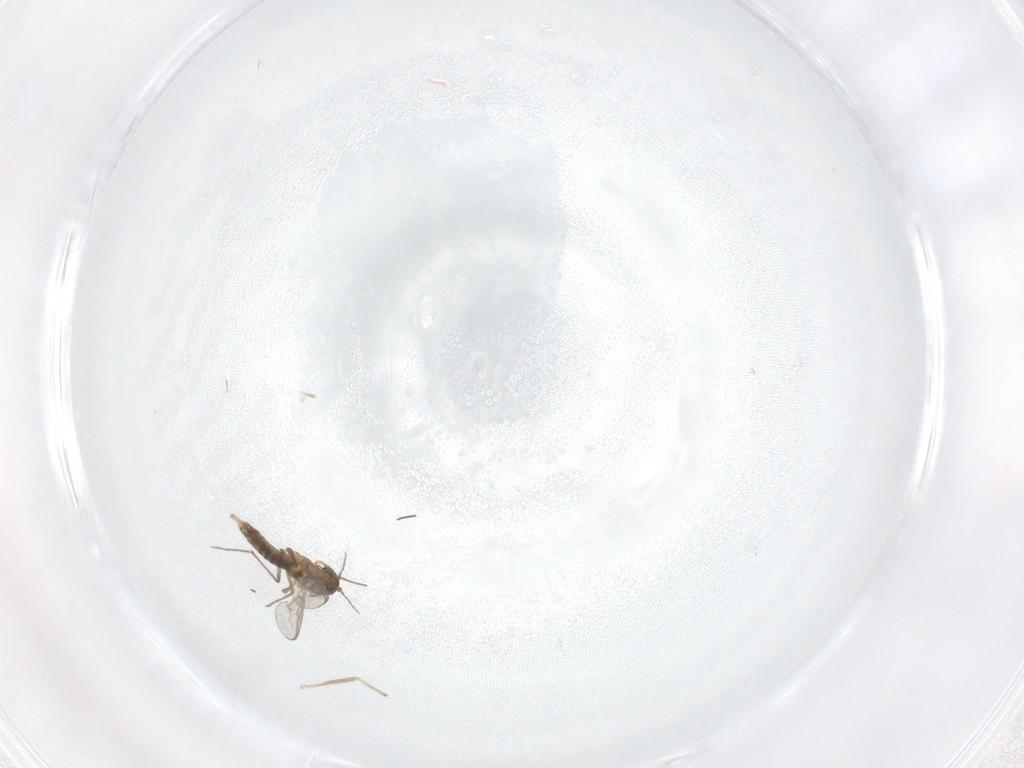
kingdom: Animalia
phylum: Arthropoda
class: Insecta
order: Diptera
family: Chironomidae
